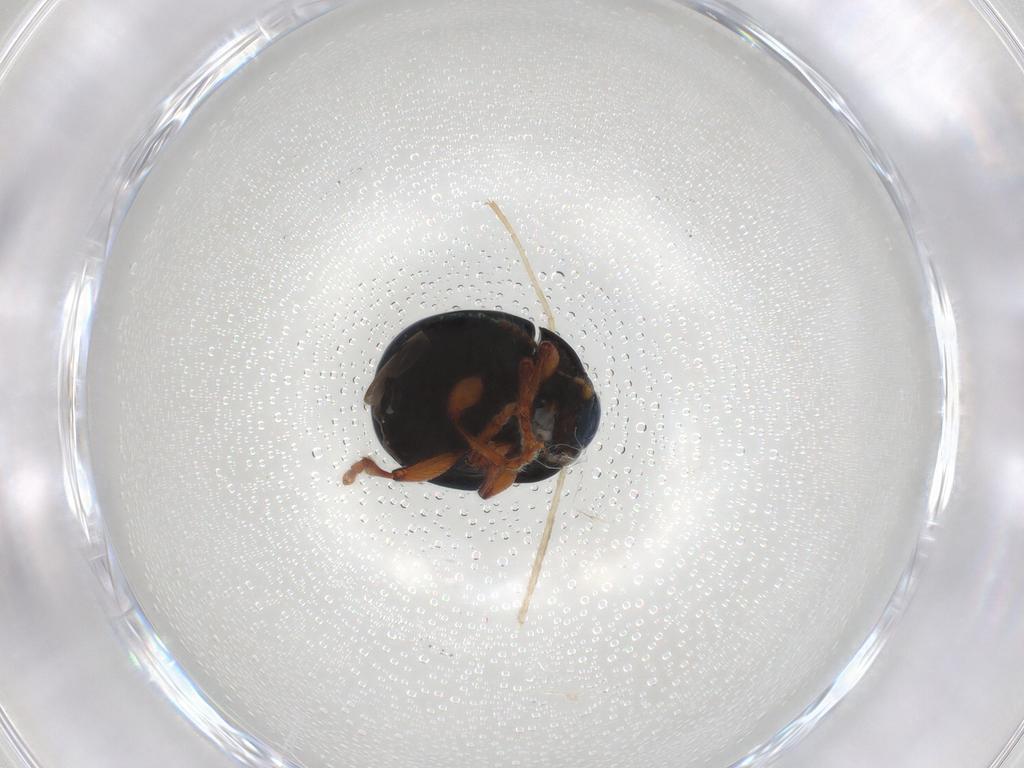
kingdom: Animalia
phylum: Arthropoda
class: Insecta
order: Coleoptera
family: Chrysomelidae
